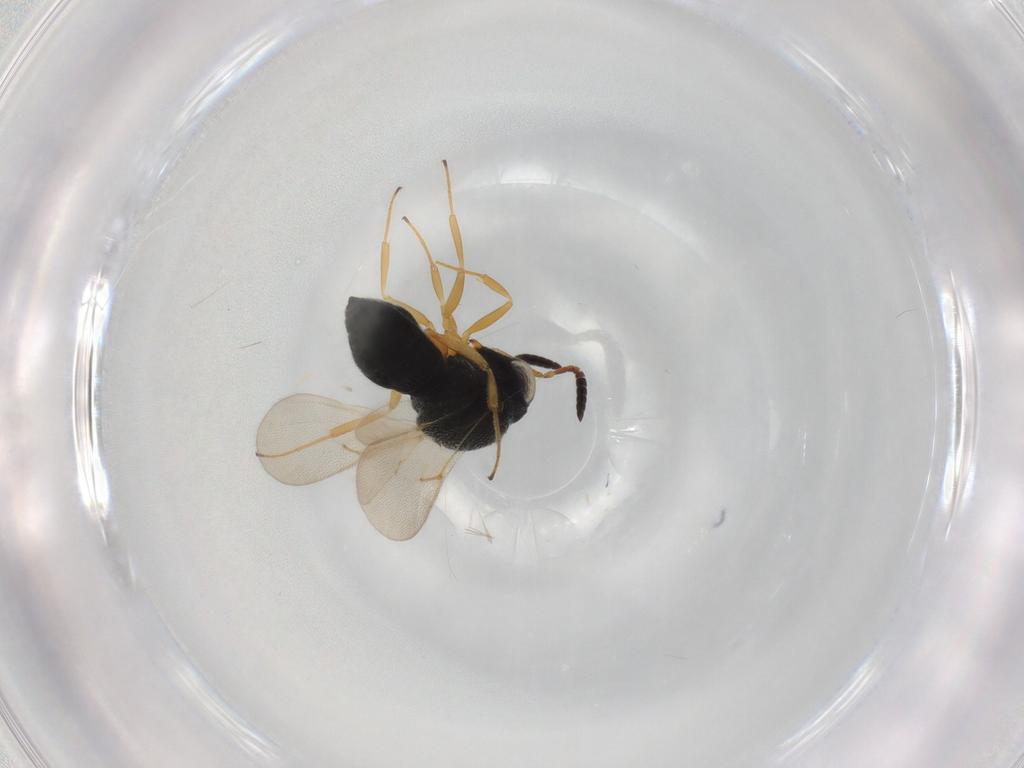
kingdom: Animalia
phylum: Arthropoda
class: Insecta
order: Hymenoptera
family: Scelionidae
